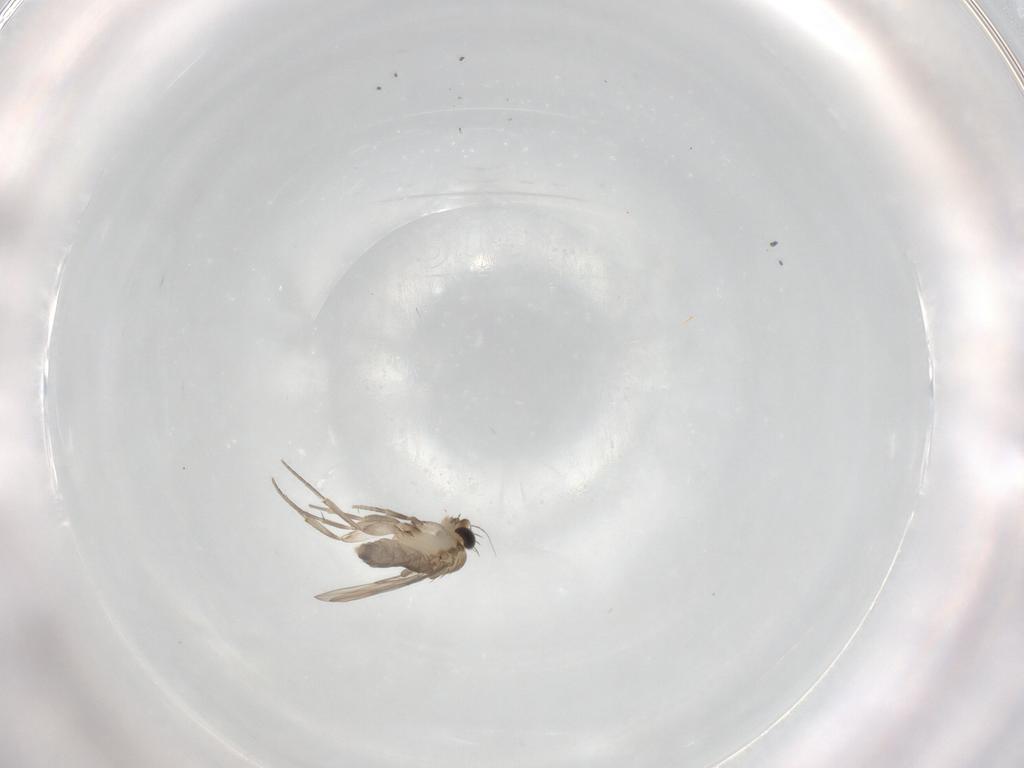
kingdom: Animalia
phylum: Arthropoda
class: Insecta
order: Diptera
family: Phoridae
